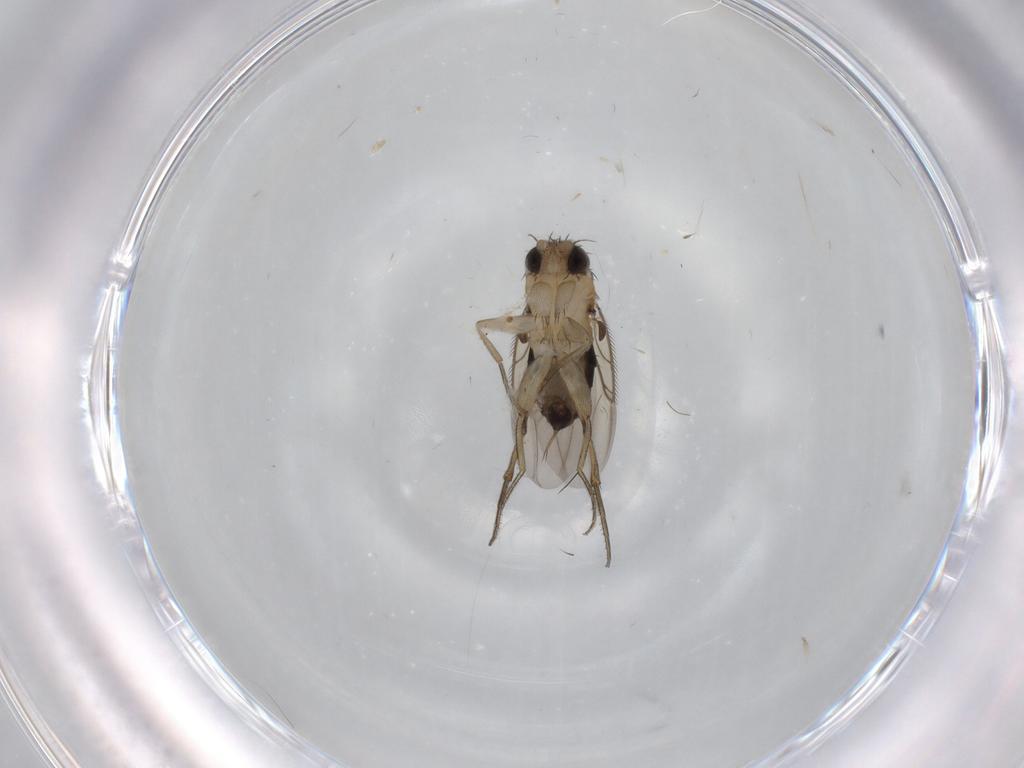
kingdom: Animalia
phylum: Arthropoda
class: Insecta
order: Diptera
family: Phoridae
